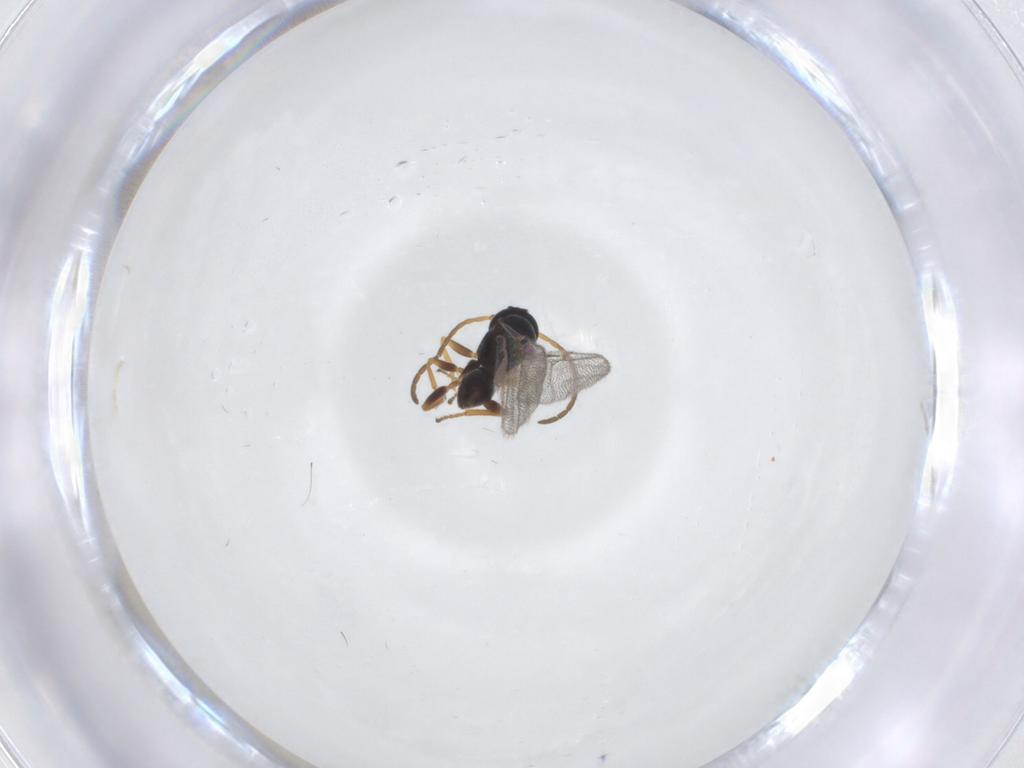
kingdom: Animalia
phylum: Arthropoda
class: Insecta
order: Hymenoptera
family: Cynipidae
